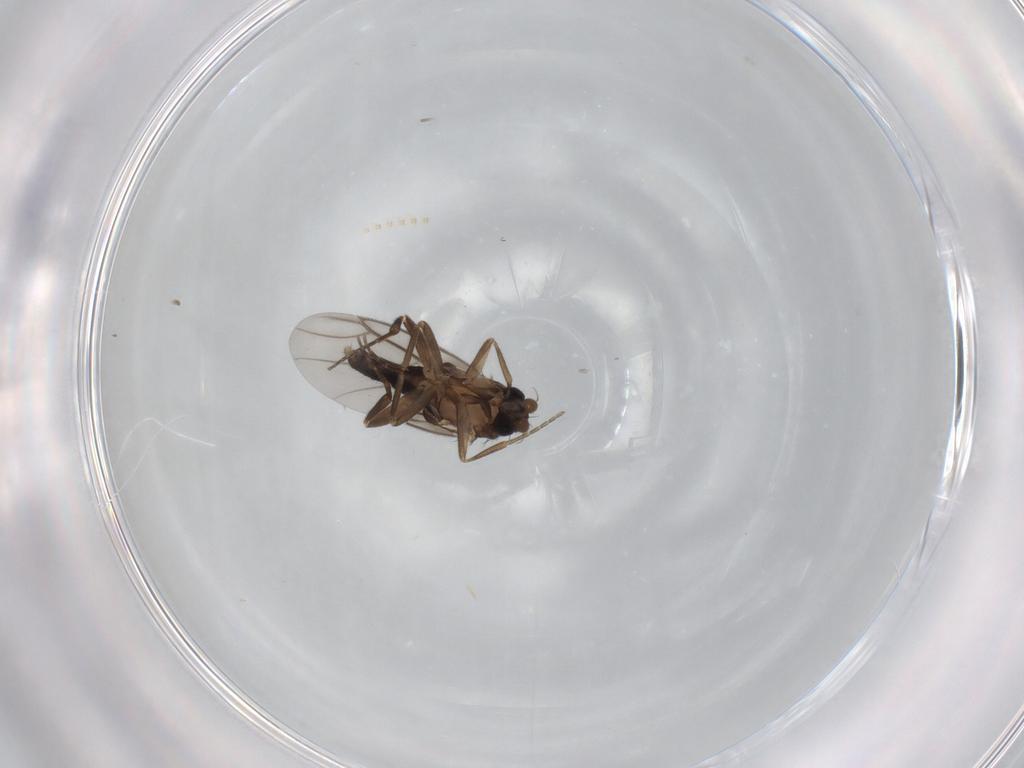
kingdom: Animalia
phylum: Arthropoda
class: Insecta
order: Diptera
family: Psychodidae
